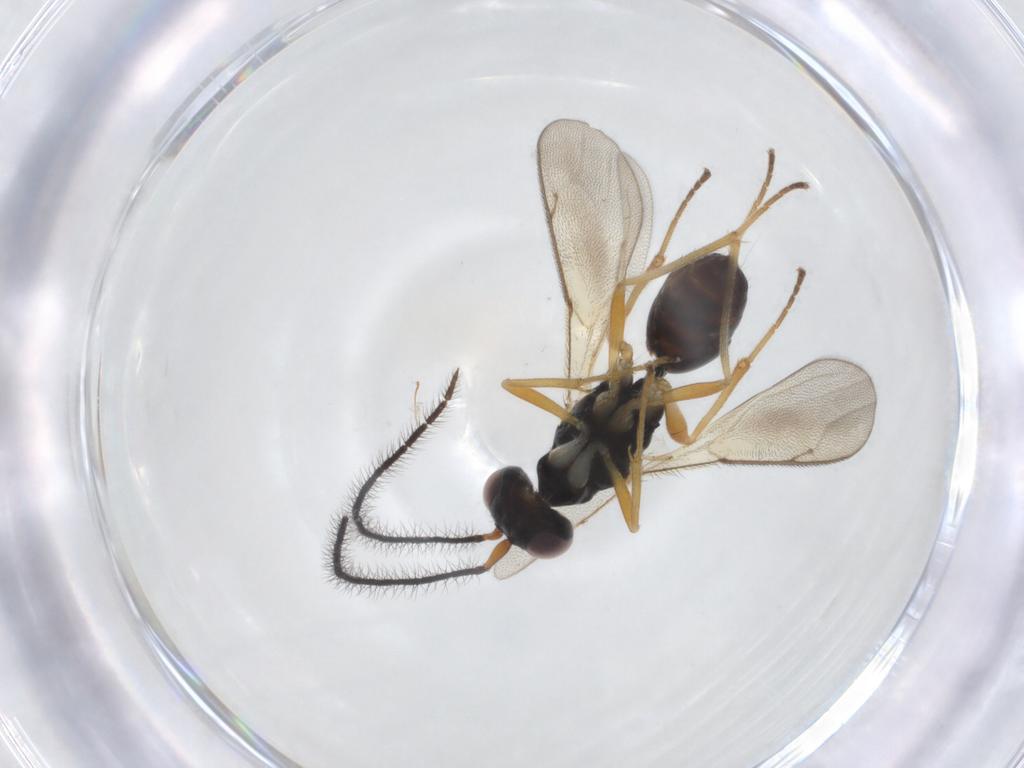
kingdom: Animalia
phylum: Arthropoda
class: Insecta
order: Hymenoptera
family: Diparidae
